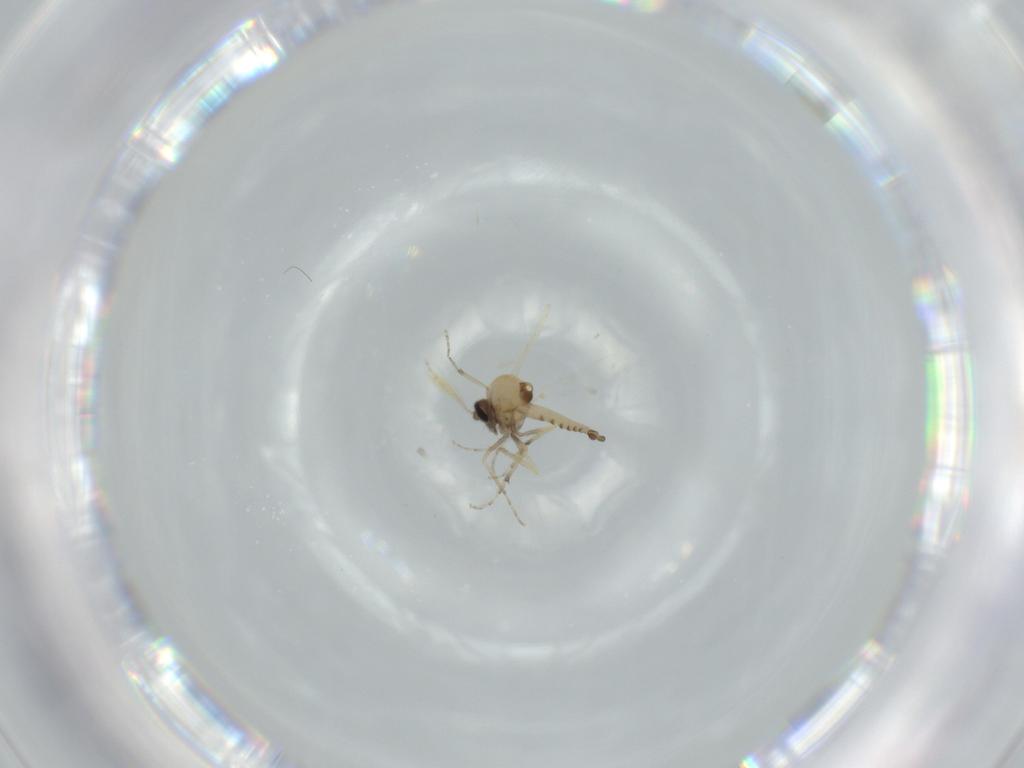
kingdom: Animalia
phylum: Arthropoda
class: Insecta
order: Diptera
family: Ceratopogonidae
